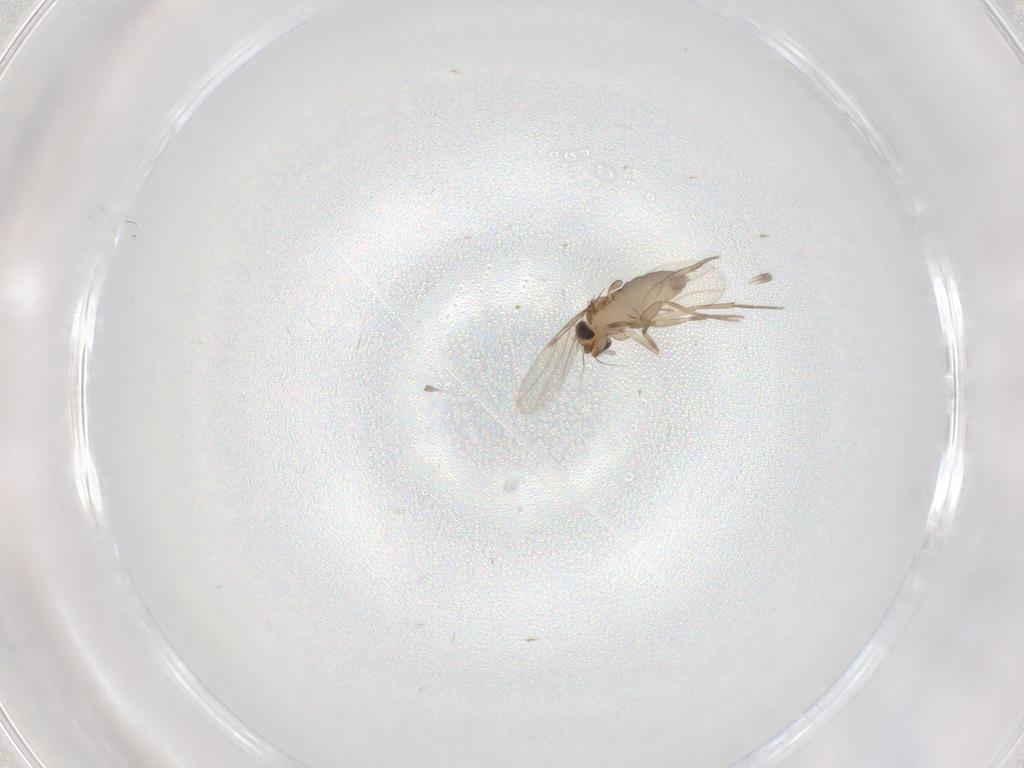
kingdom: Animalia
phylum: Arthropoda
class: Insecta
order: Diptera
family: Phoridae
